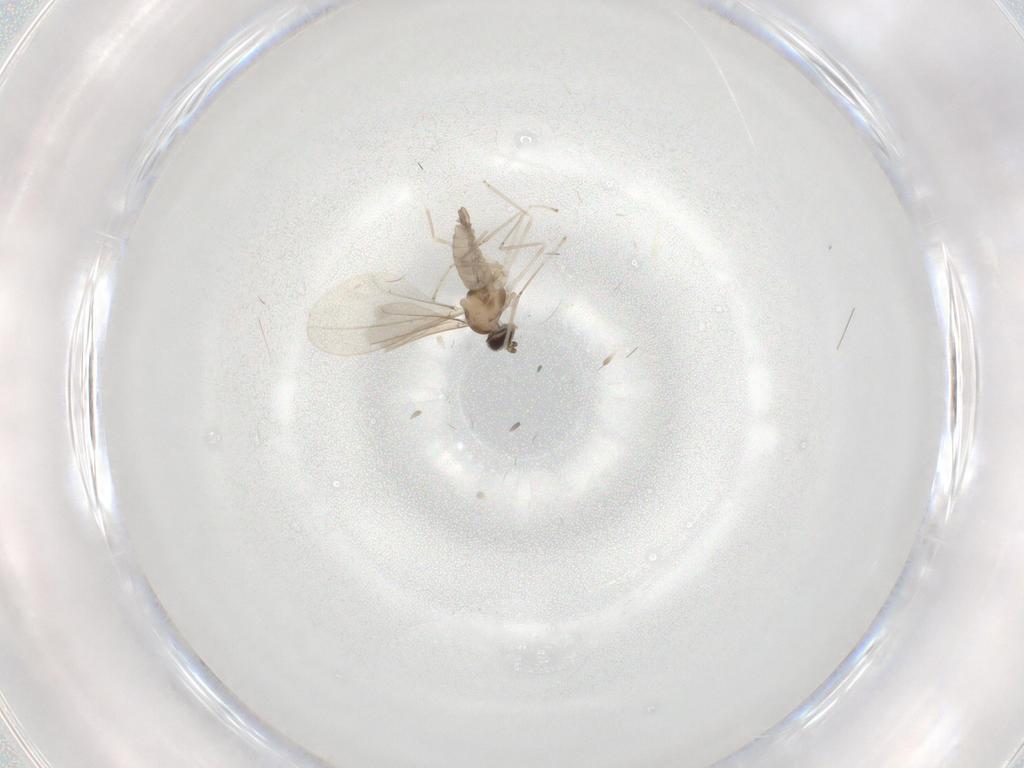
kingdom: Animalia
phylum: Arthropoda
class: Insecta
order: Diptera
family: Cecidomyiidae
